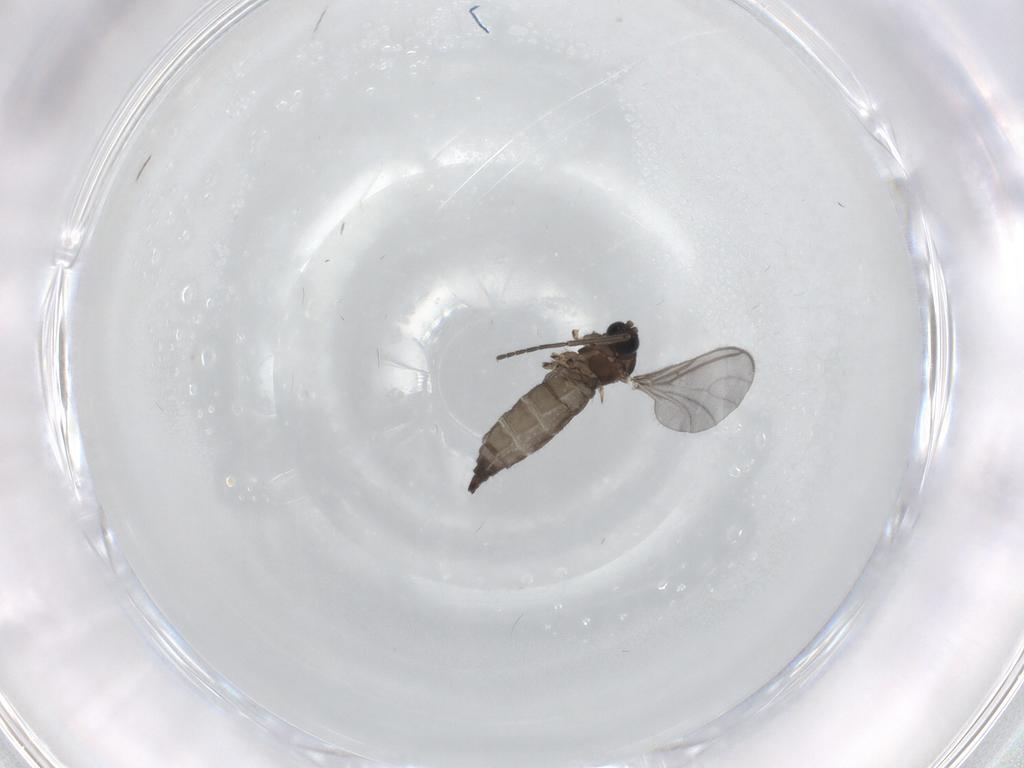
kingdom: Animalia
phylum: Arthropoda
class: Insecta
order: Diptera
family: Sciaridae
